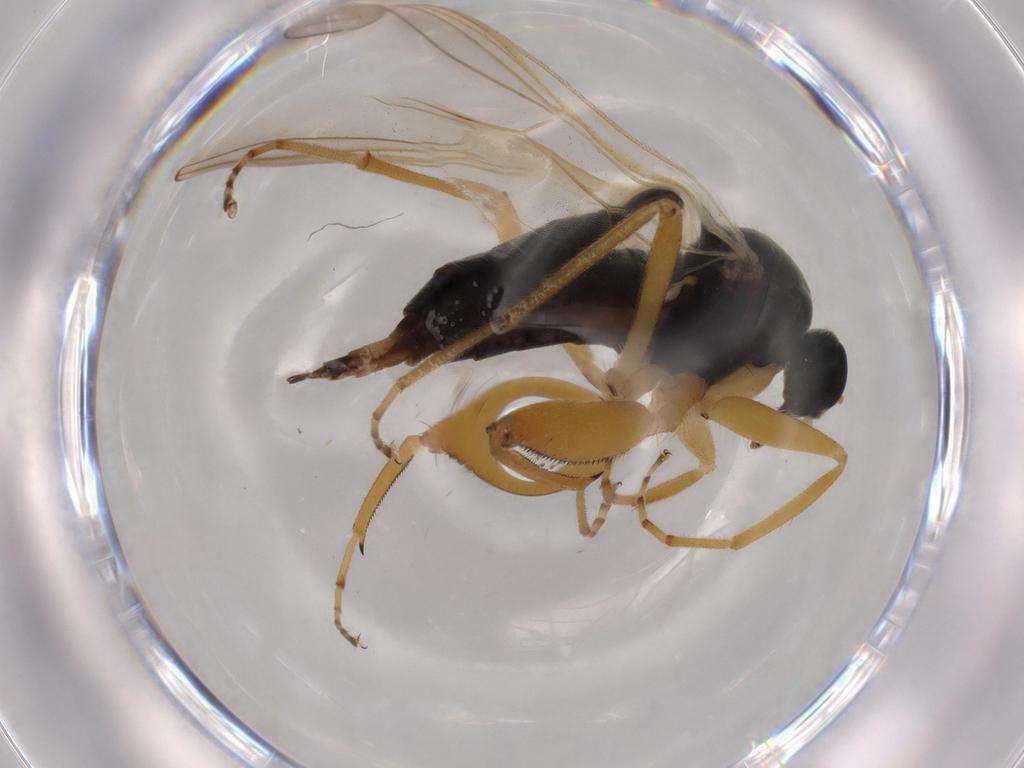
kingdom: Animalia
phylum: Arthropoda
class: Insecta
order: Diptera
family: Hybotidae
